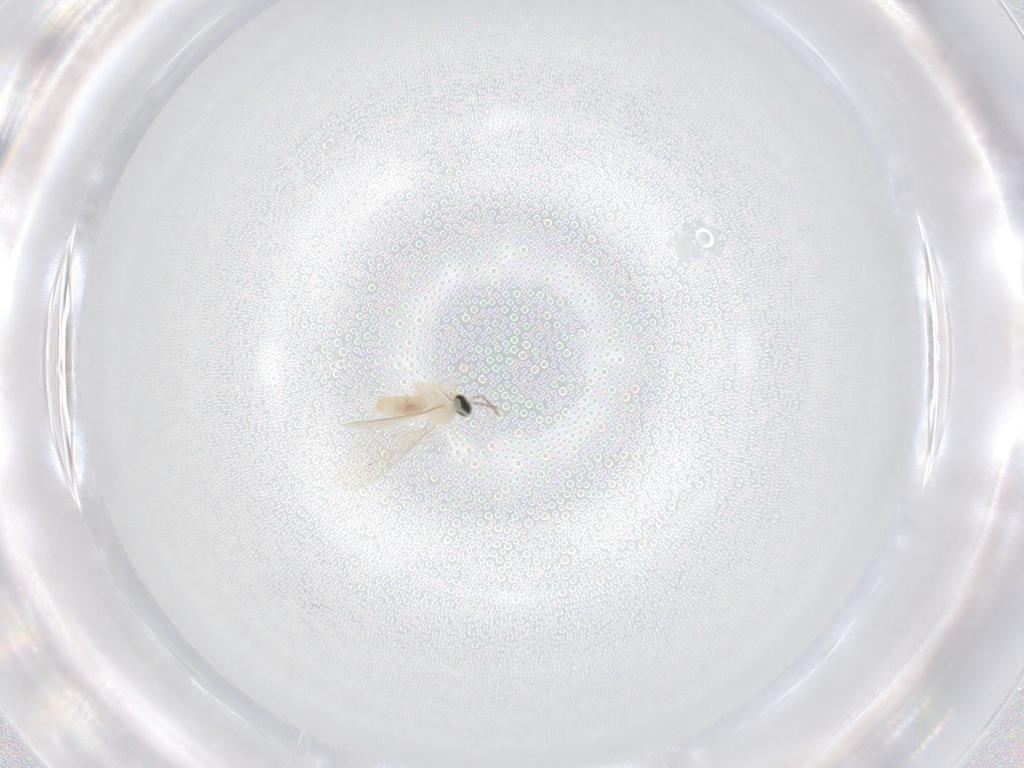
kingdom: Animalia
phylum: Arthropoda
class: Insecta
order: Diptera
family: Cecidomyiidae
